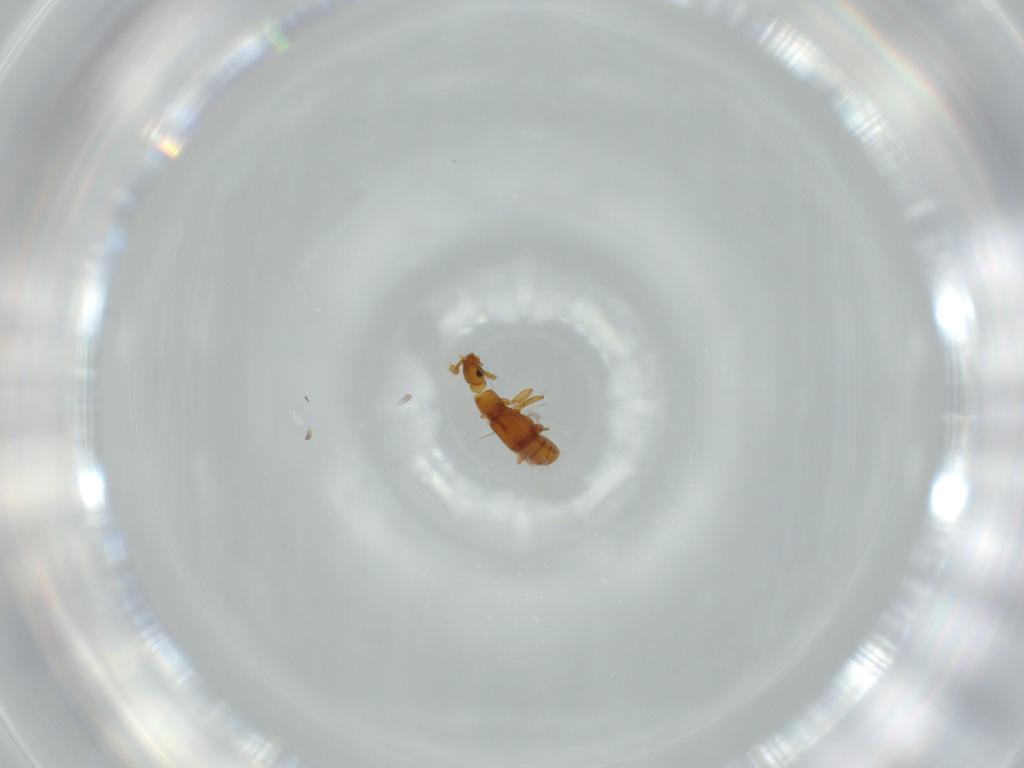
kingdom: Animalia
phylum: Arthropoda
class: Insecta
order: Coleoptera
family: Staphylinidae
